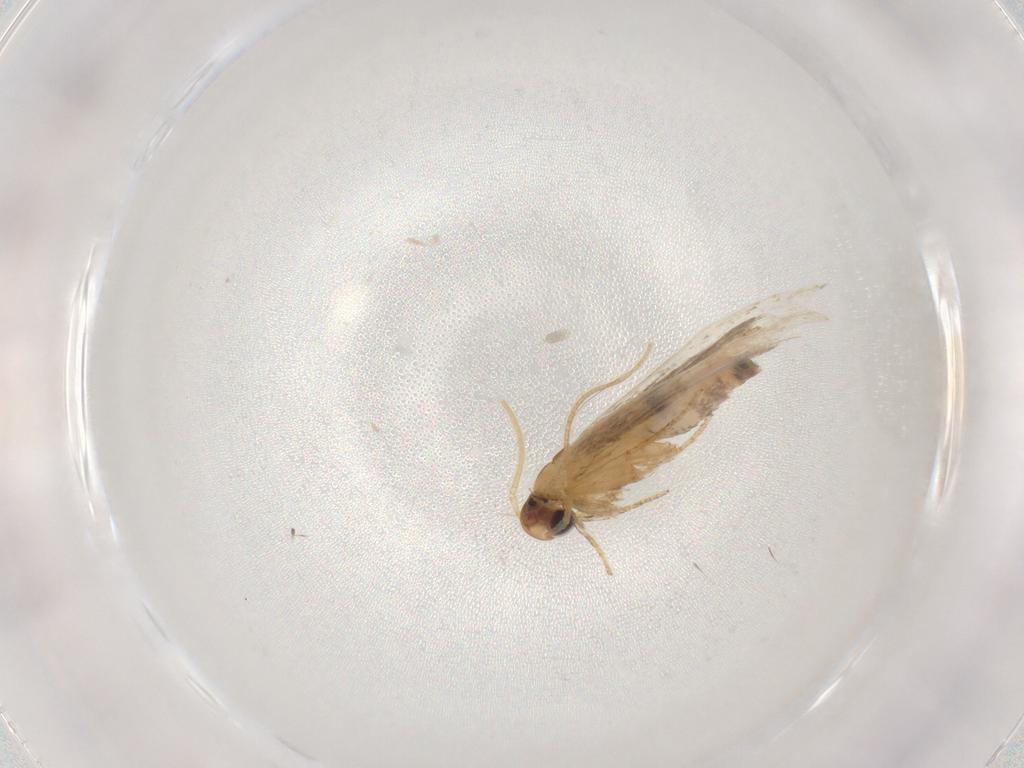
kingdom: Animalia
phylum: Arthropoda
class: Insecta
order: Lepidoptera
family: Gelechiidae
